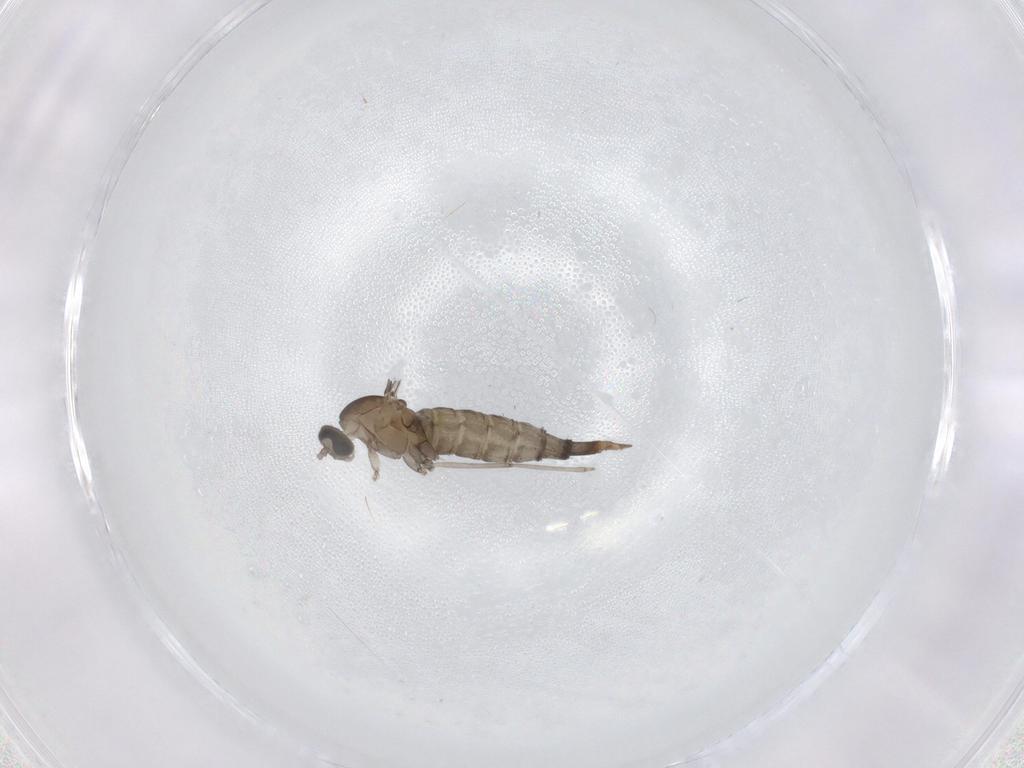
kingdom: Animalia
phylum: Arthropoda
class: Insecta
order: Diptera
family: Cecidomyiidae
